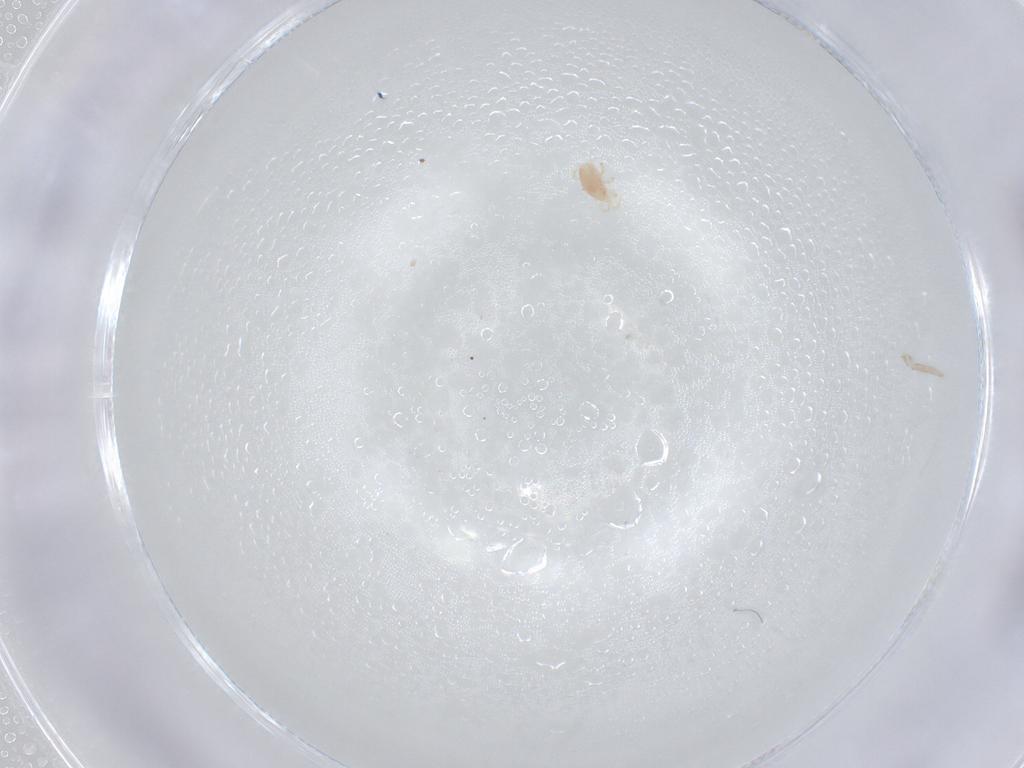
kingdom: Animalia
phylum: Arthropoda
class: Collembola
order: Entomobryomorpha
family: Entomobryidae
